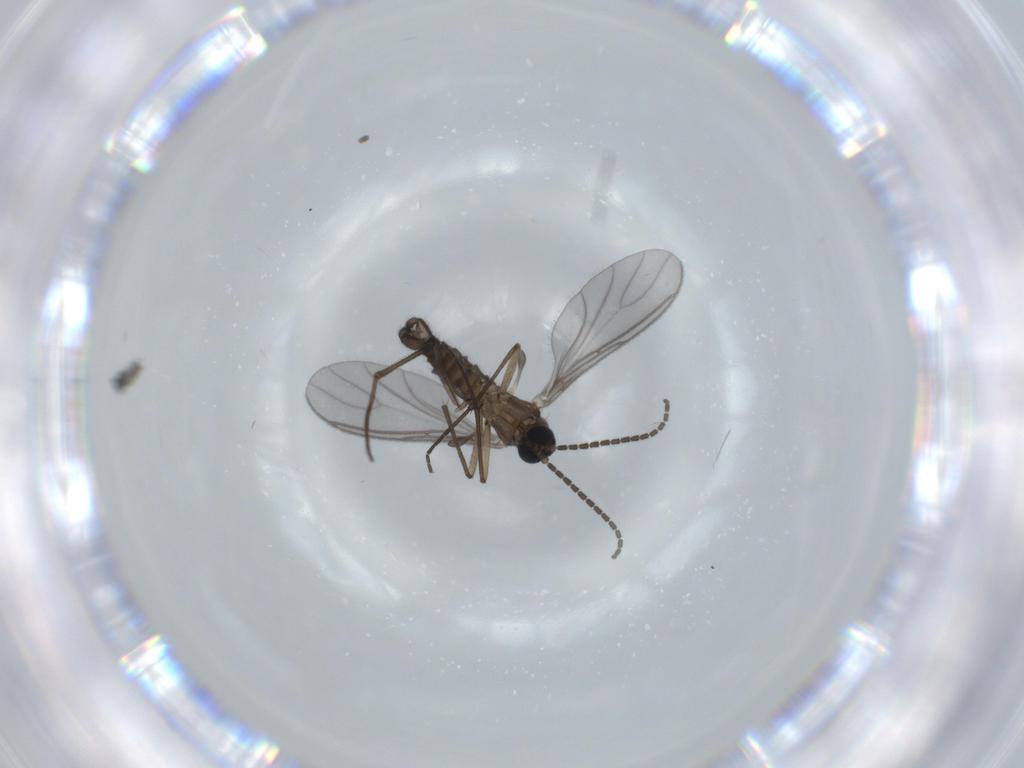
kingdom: Animalia
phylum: Arthropoda
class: Insecta
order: Diptera
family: Sciaridae
